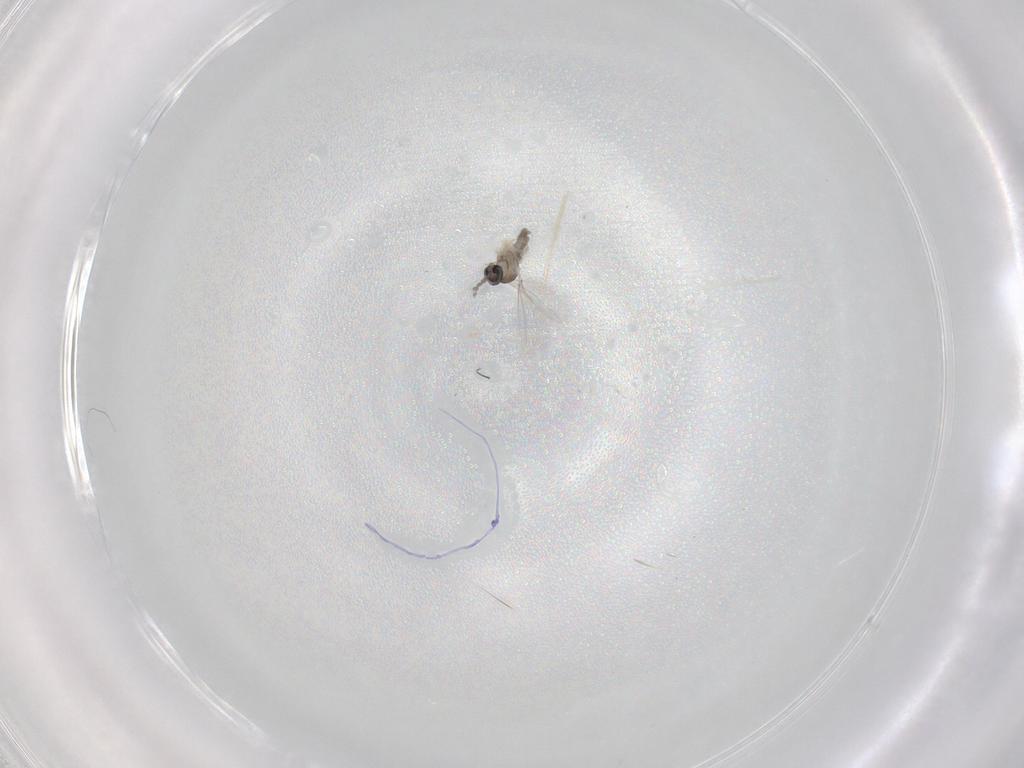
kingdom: Animalia
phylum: Arthropoda
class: Insecta
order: Diptera
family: Cecidomyiidae
